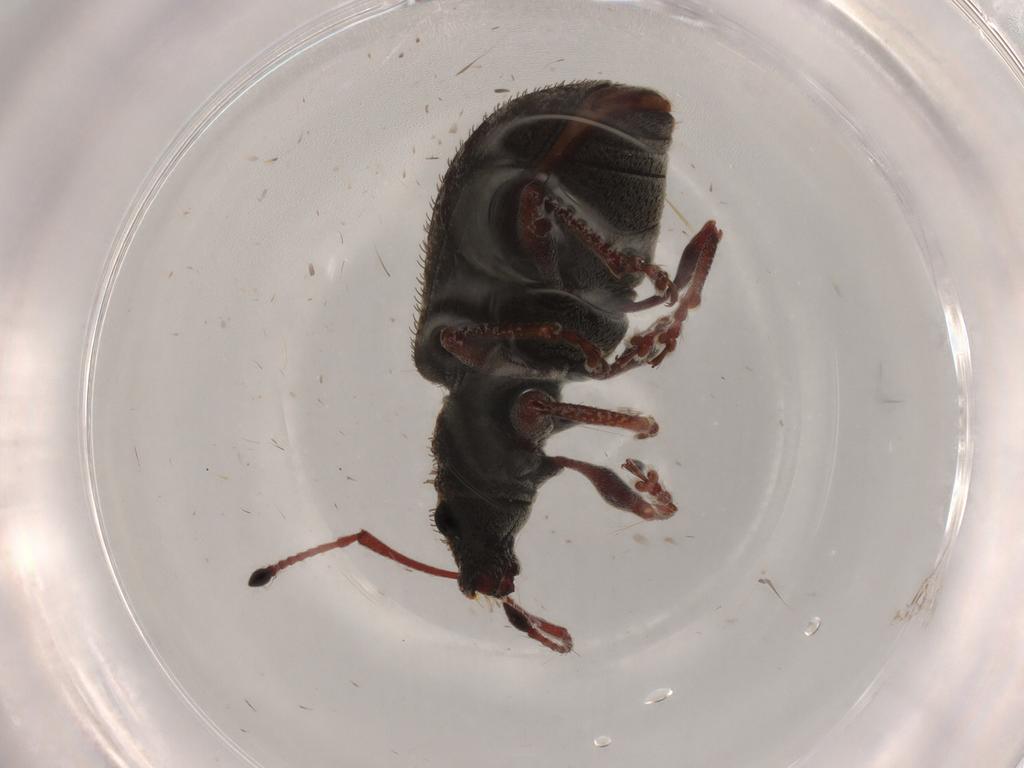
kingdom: Animalia
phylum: Arthropoda
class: Insecta
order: Coleoptera
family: Curculionidae
